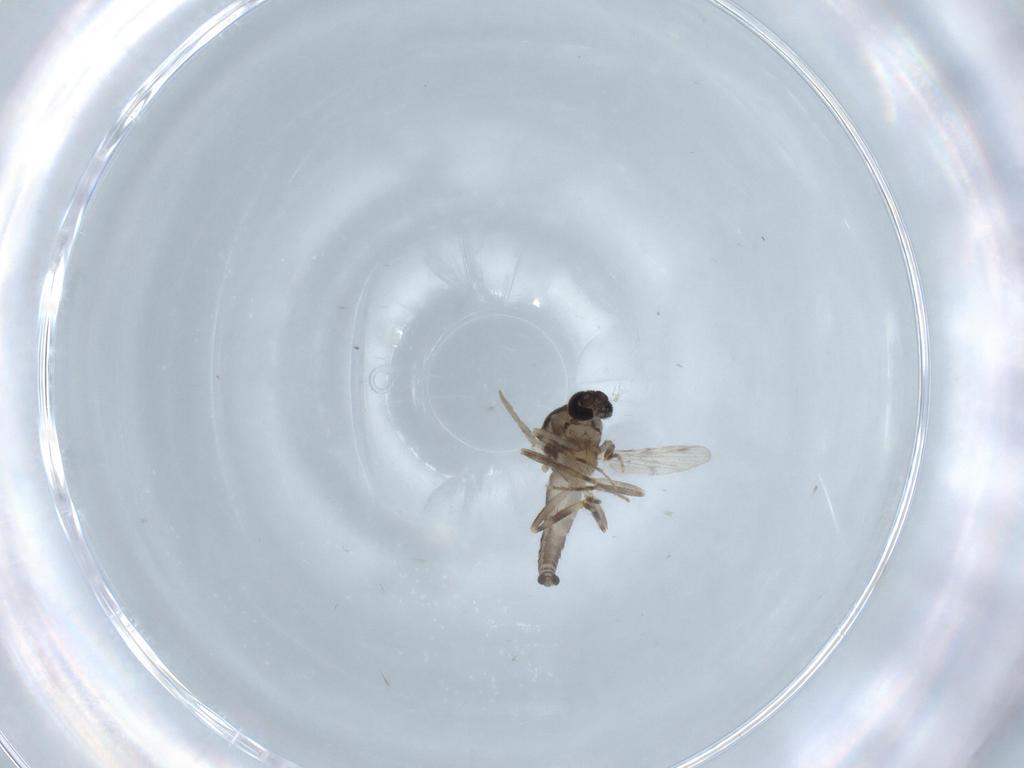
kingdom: Animalia
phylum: Arthropoda
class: Insecta
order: Diptera
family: Ceratopogonidae
